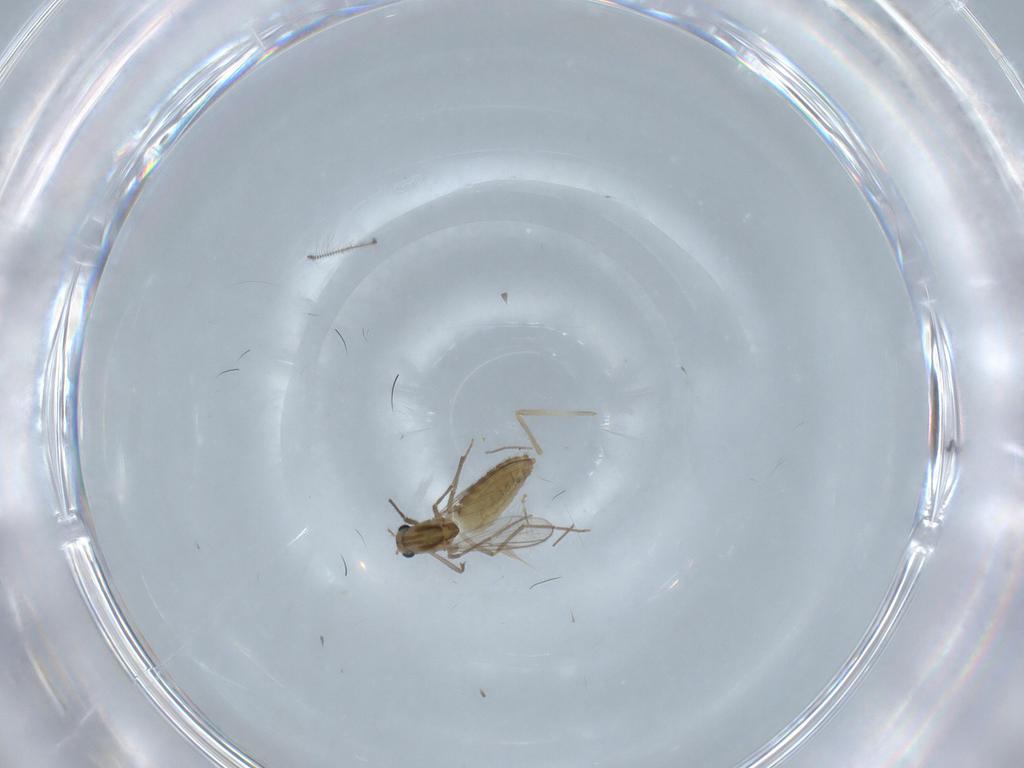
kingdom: Animalia
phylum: Arthropoda
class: Insecta
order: Diptera
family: Chironomidae
